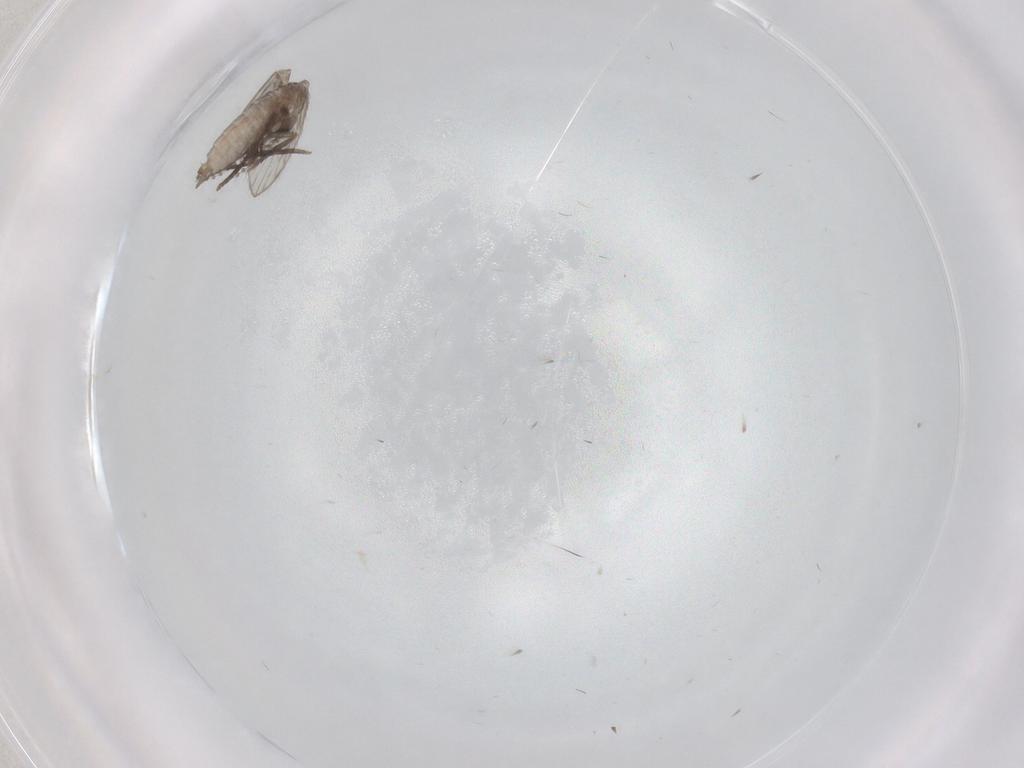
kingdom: Animalia
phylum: Arthropoda
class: Insecta
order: Diptera
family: Psychodidae
